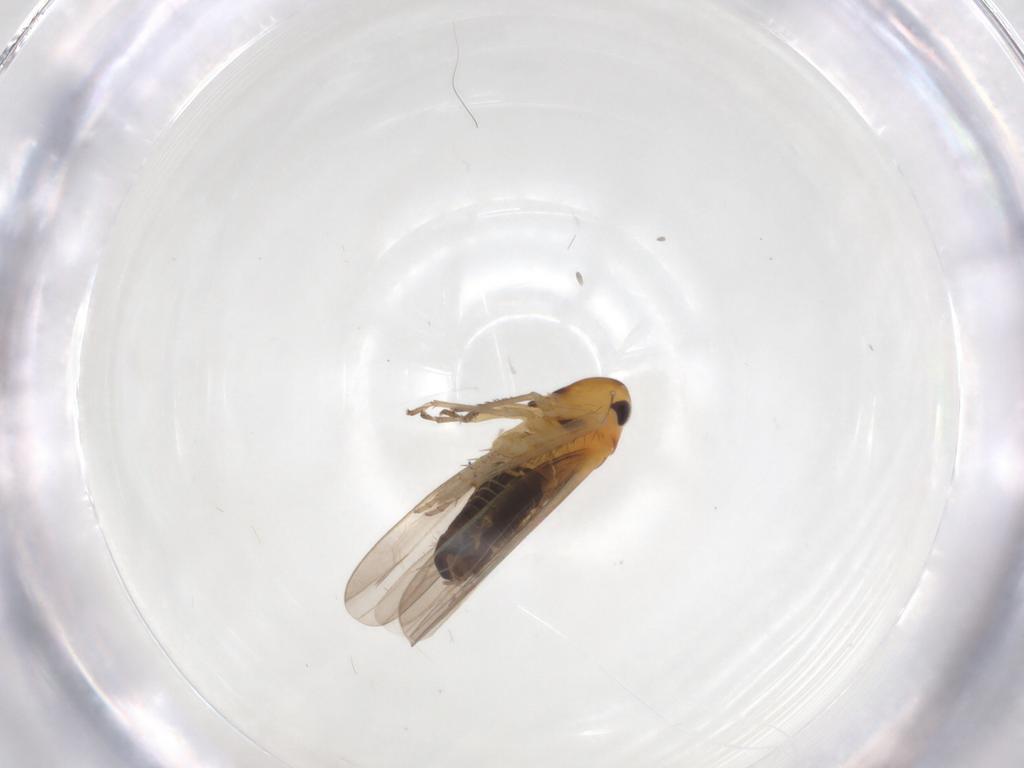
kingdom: Animalia
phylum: Arthropoda
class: Insecta
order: Hemiptera
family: Cicadellidae
